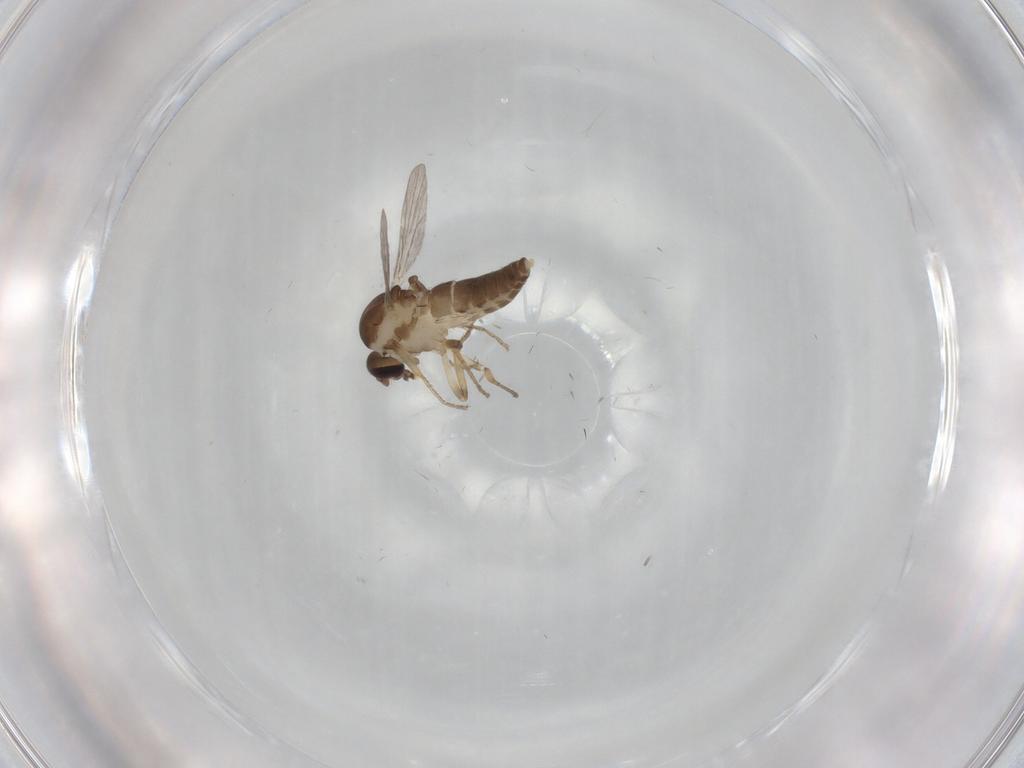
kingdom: Animalia
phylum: Arthropoda
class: Insecta
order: Diptera
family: Ceratopogonidae
